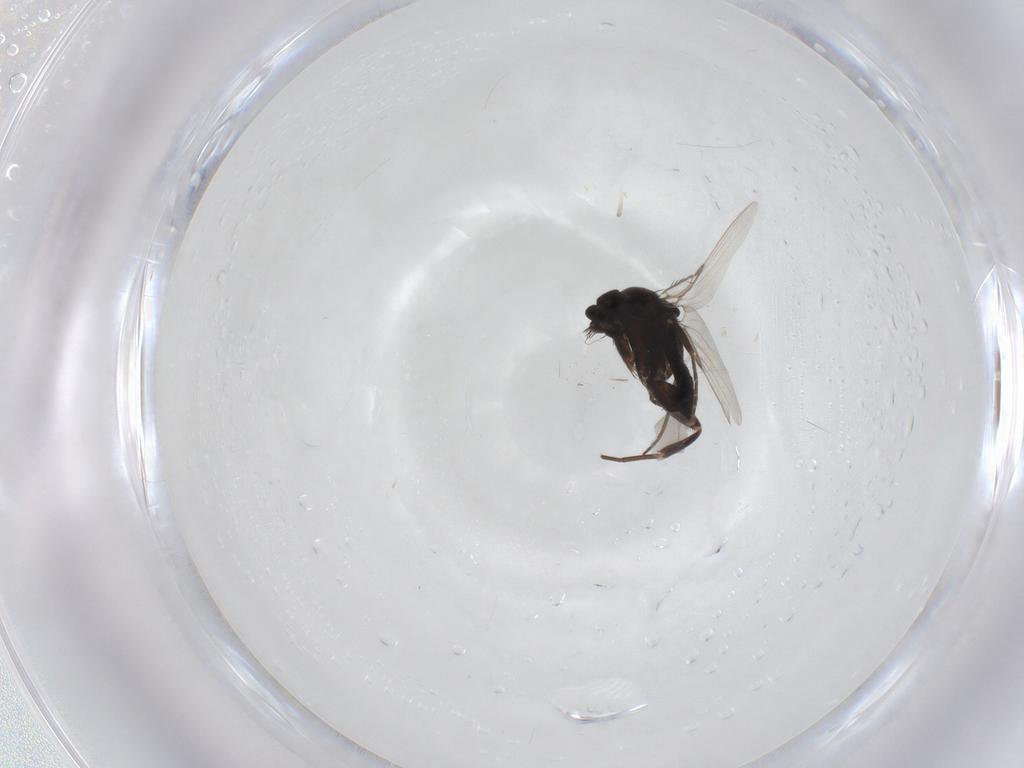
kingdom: Animalia
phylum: Arthropoda
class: Insecta
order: Diptera
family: Phoridae
